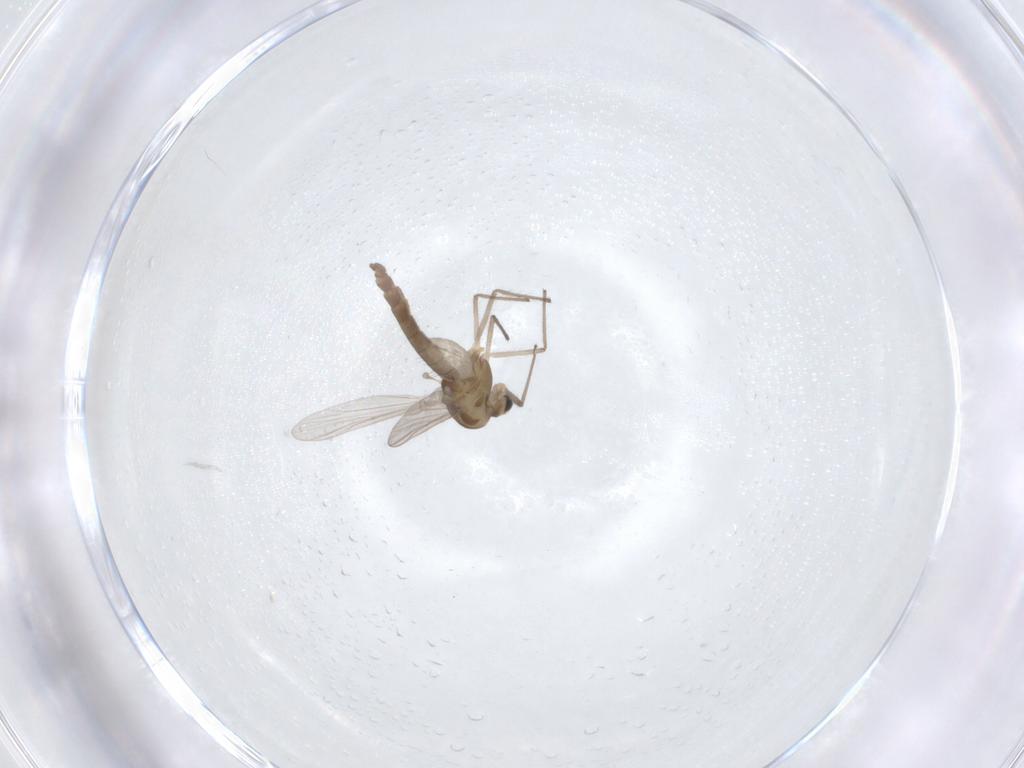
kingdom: Animalia
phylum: Arthropoda
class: Insecta
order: Diptera
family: Chironomidae
